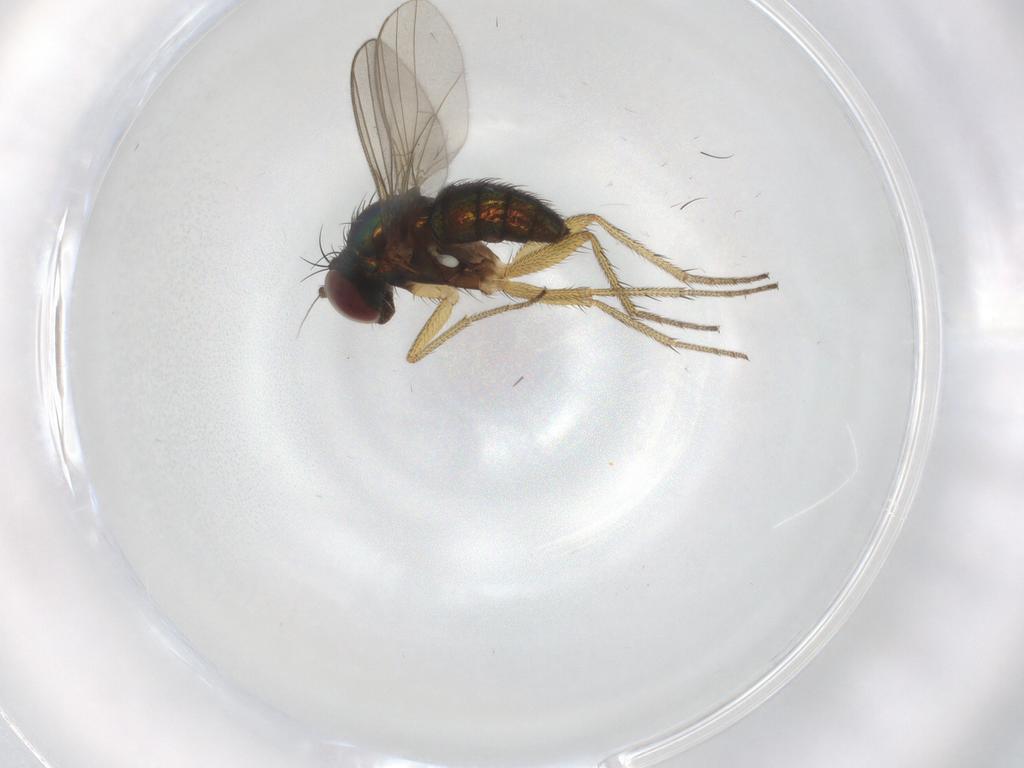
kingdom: Animalia
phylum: Arthropoda
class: Insecta
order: Diptera
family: Dolichopodidae
